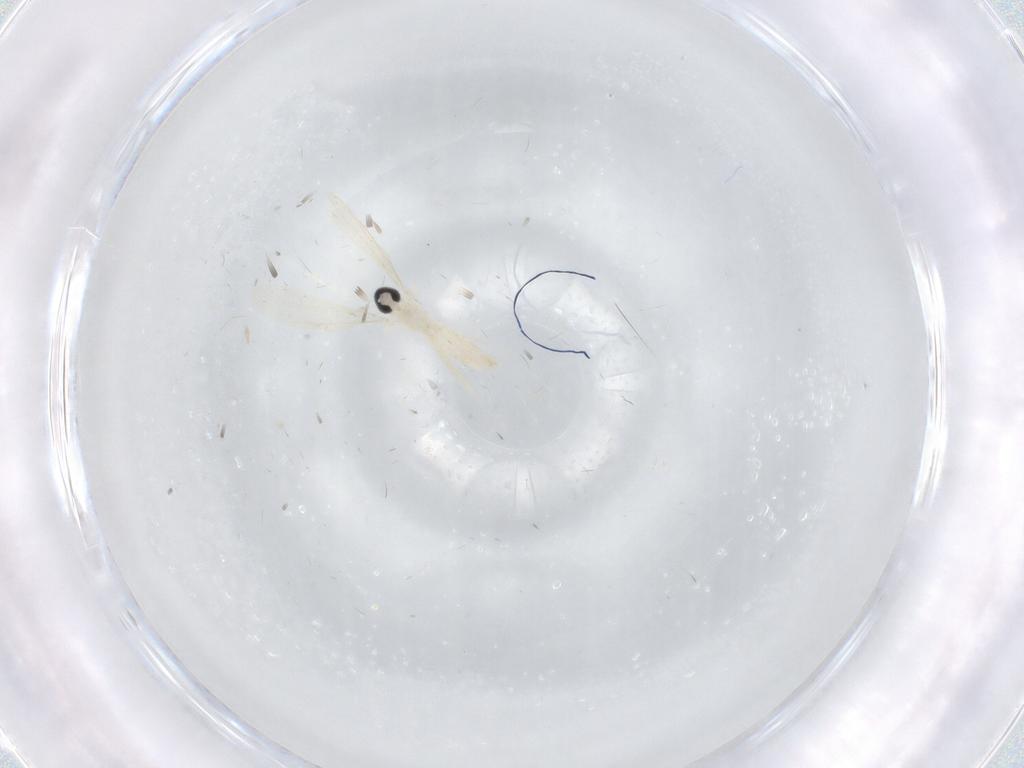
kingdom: Animalia
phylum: Arthropoda
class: Insecta
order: Diptera
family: Cecidomyiidae
